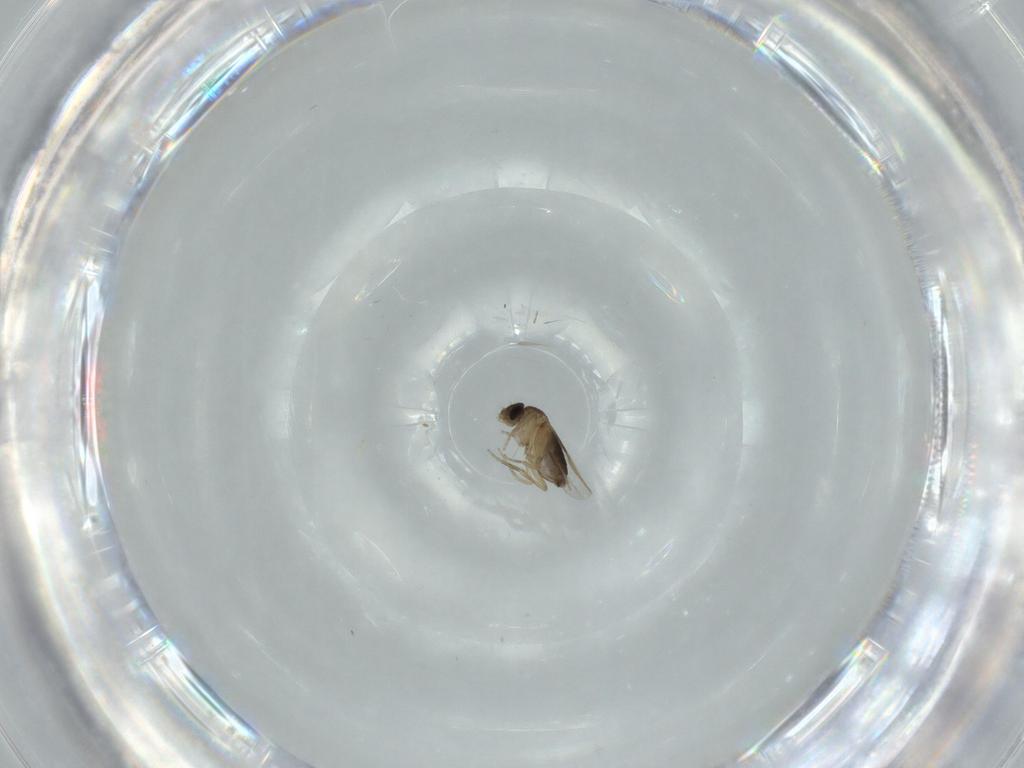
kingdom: Animalia
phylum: Arthropoda
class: Insecta
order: Diptera
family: Phoridae
